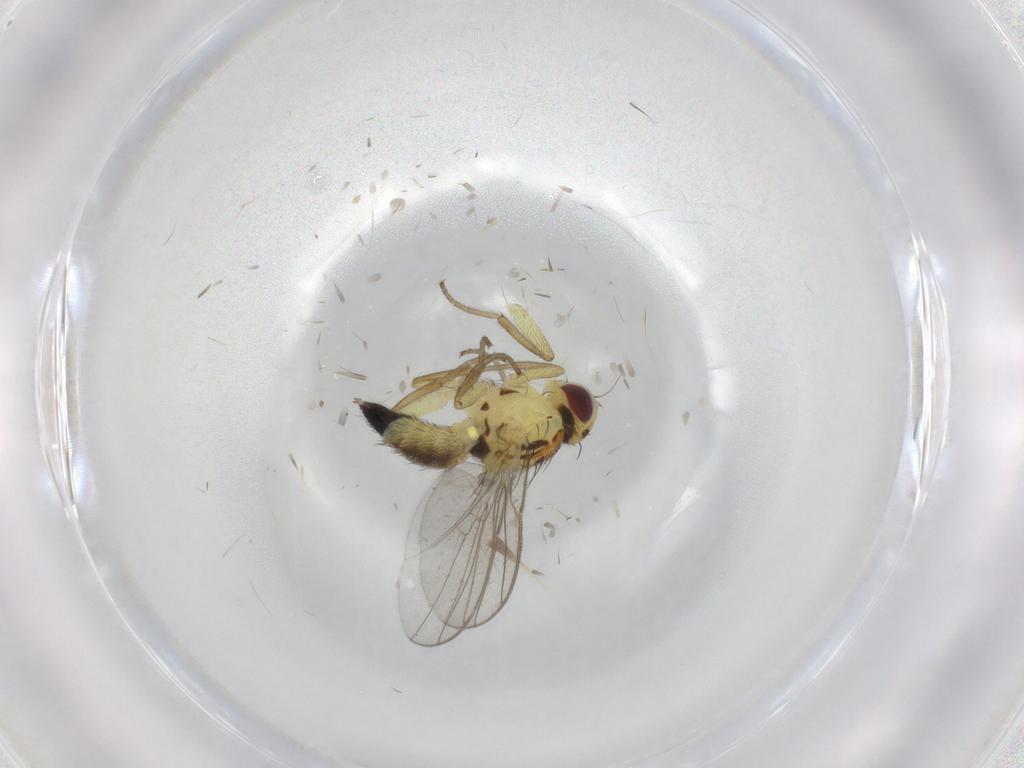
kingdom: Animalia
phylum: Arthropoda
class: Insecta
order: Diptera
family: Agromyzidae
